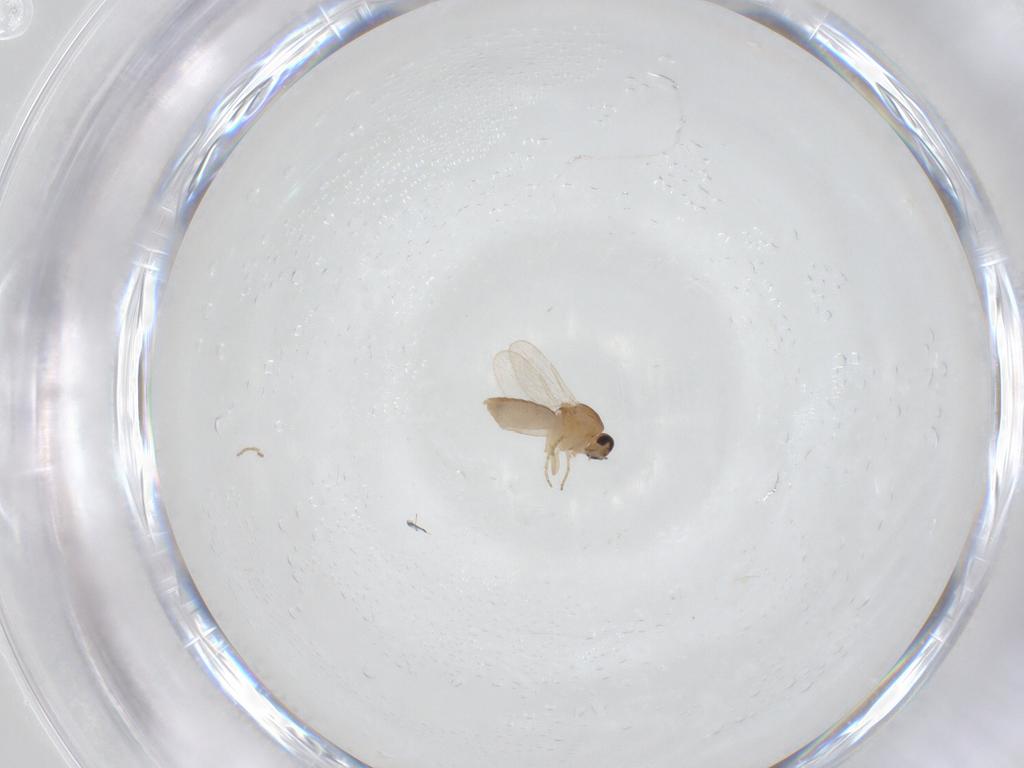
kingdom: Animalia
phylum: Arthropoda
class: Insecta
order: Diptera
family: Ceratopogonidae
